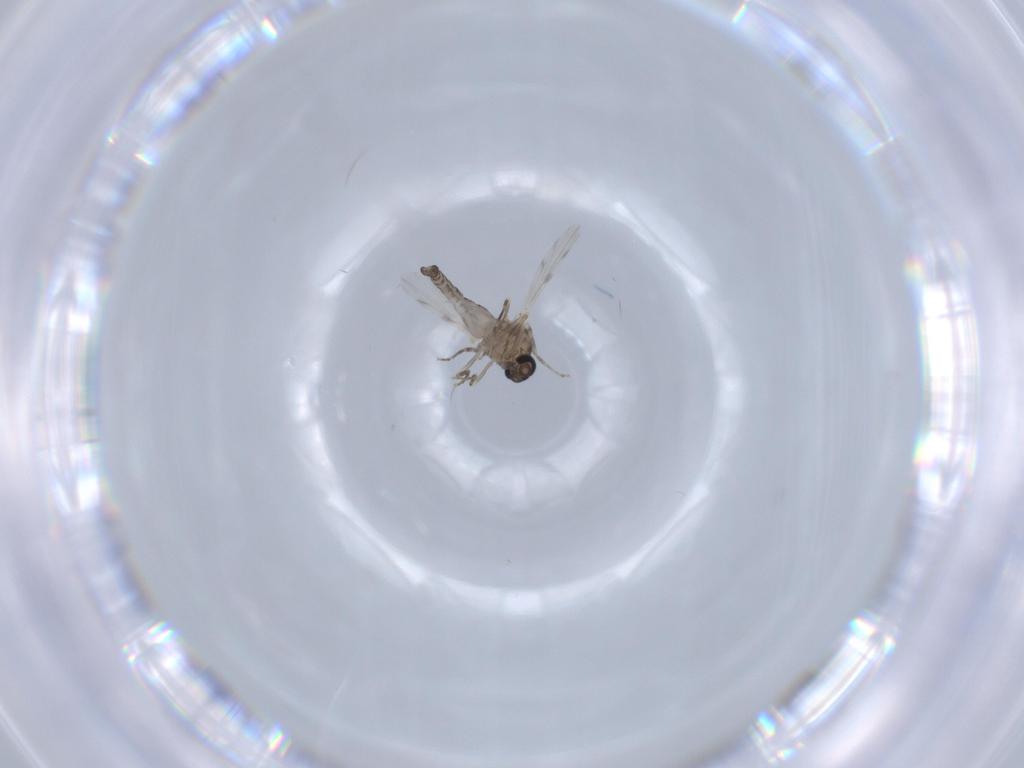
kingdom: Animalia
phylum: Arthropoda
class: Insecta
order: Diptera
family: Ceratopogonidae
